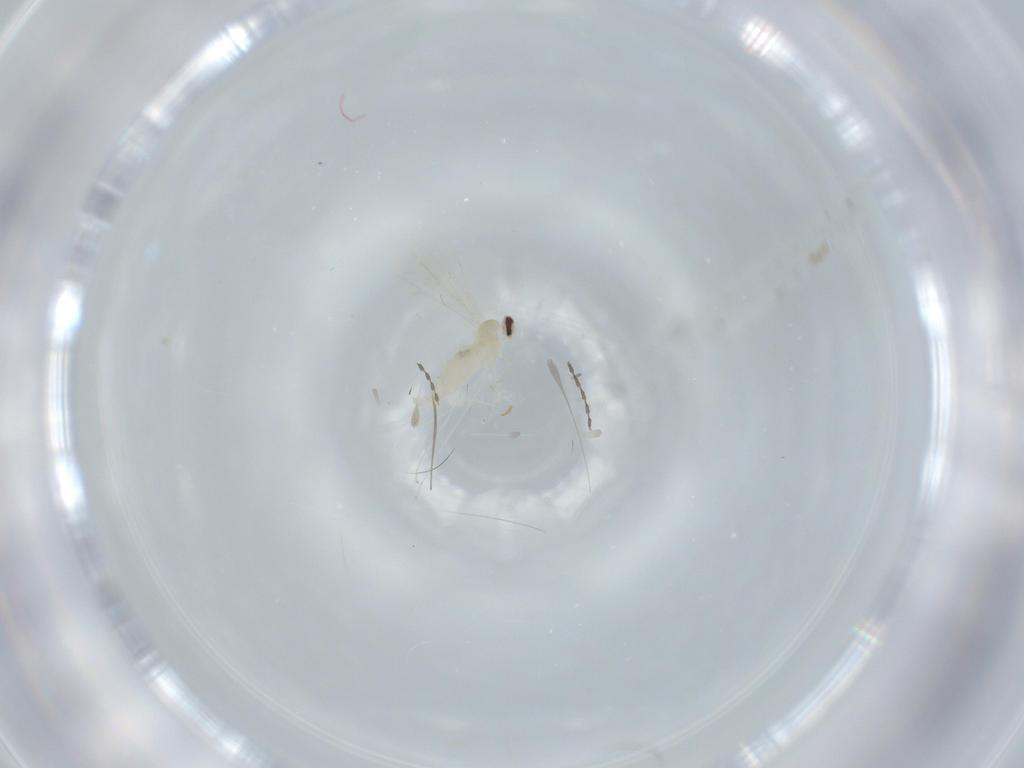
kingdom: Animalia
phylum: Arthropoda
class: Insecta
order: Diptera
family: Cecidomyiidae
